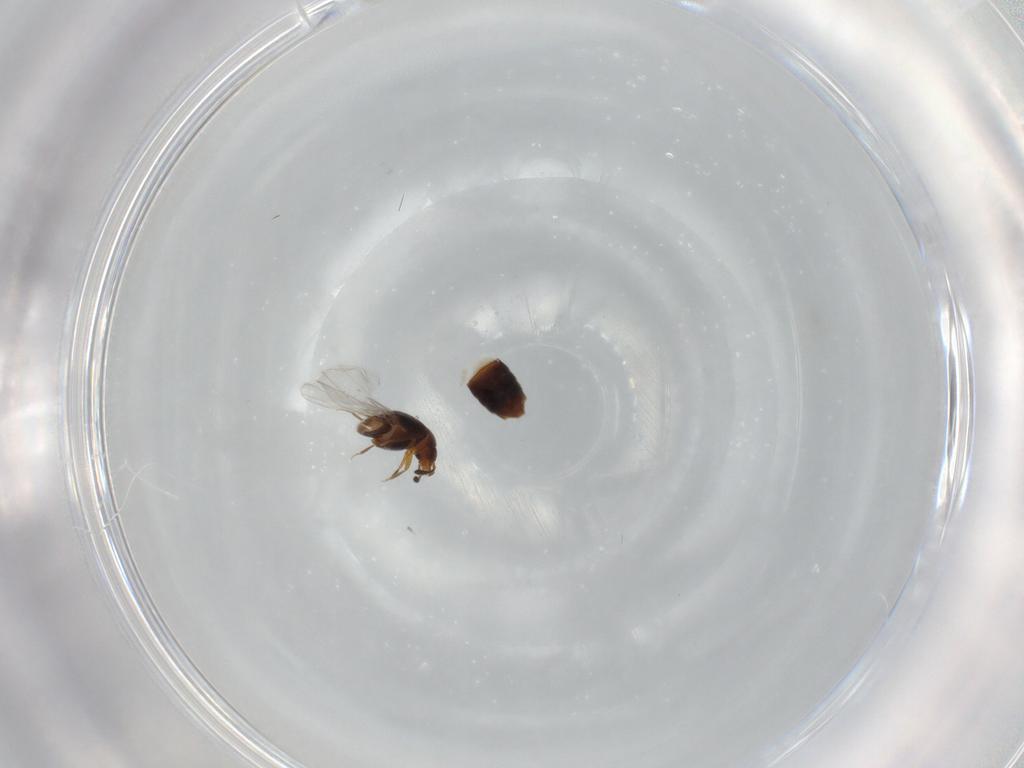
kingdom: Animalia
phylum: Arthropoda
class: Insecta
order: Coleoptera
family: Staphylinidae
